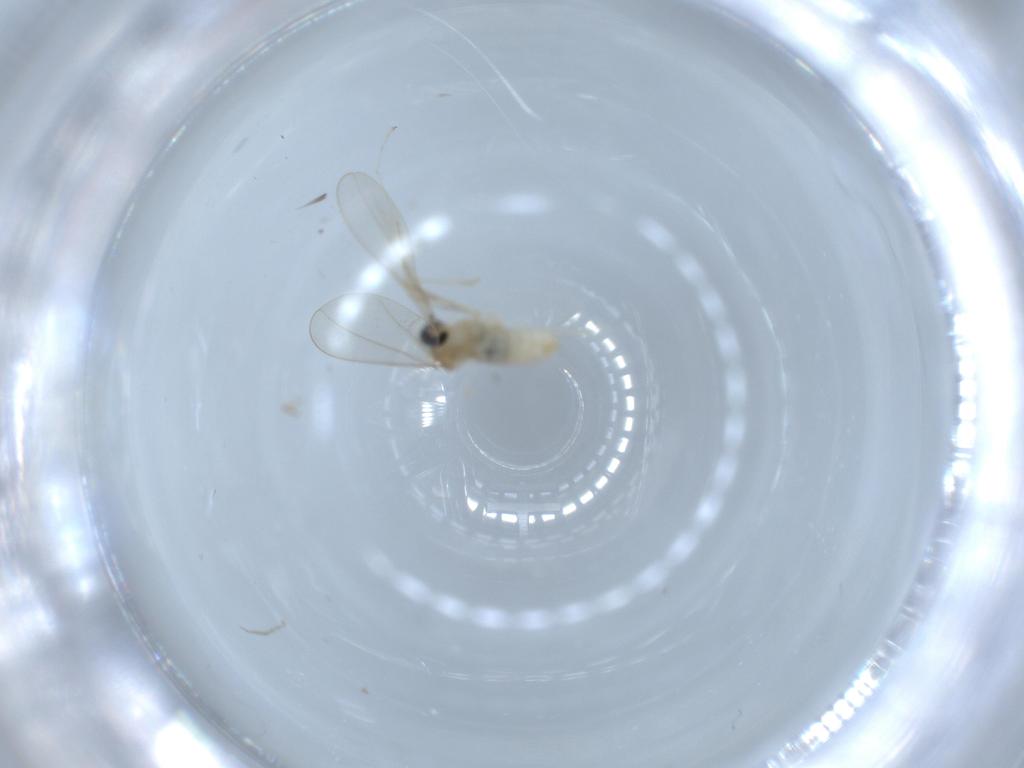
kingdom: Animalia
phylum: Arthropoda
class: Insecta
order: Diptera
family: Cecidomyiidae
